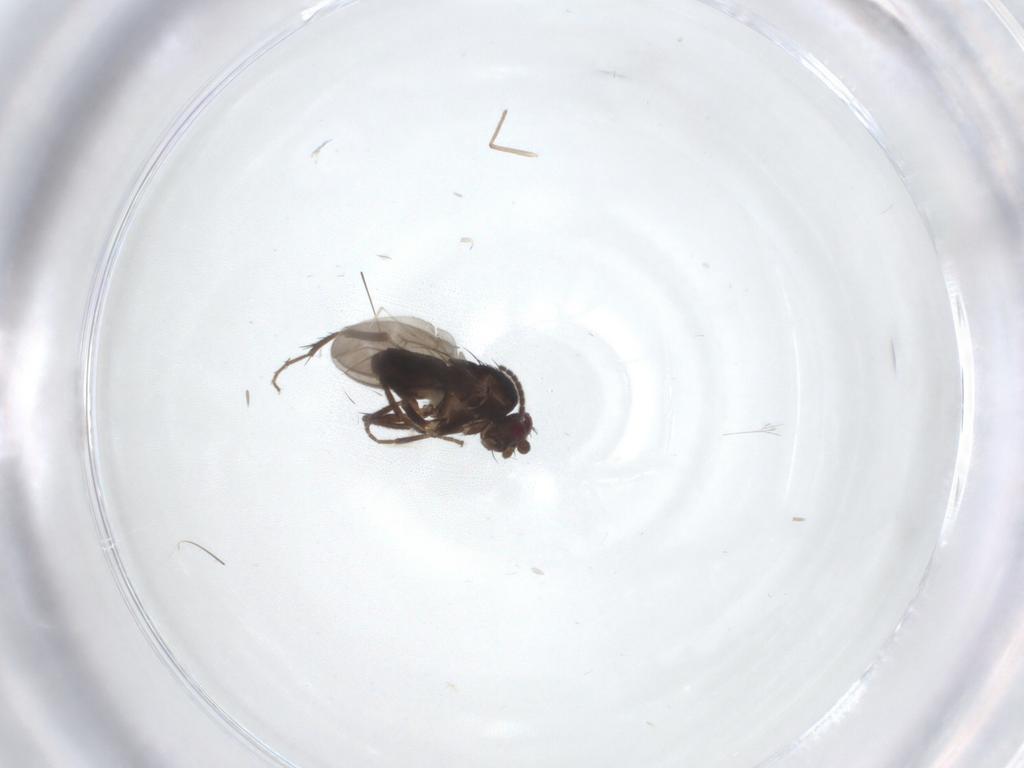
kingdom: Animalia
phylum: Arthropoda
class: Insecta
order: Diptera
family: Sciaridae
